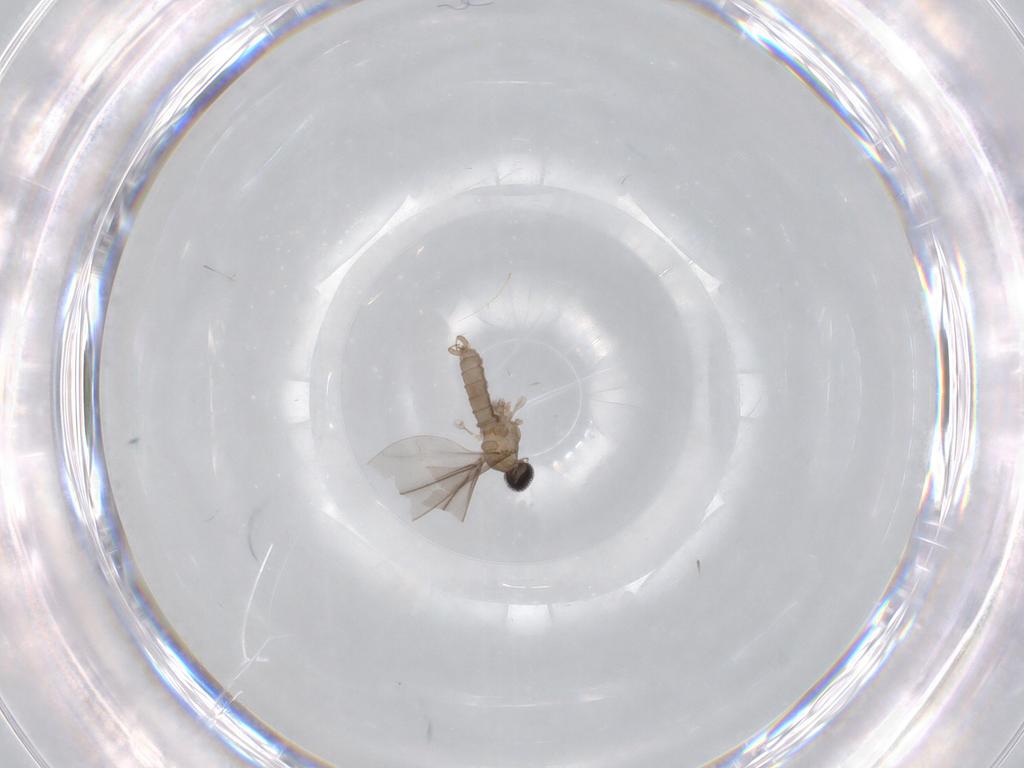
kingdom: Animalia
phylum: Arthropoda
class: Insecta
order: Diptera
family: Cecidomyiidae
